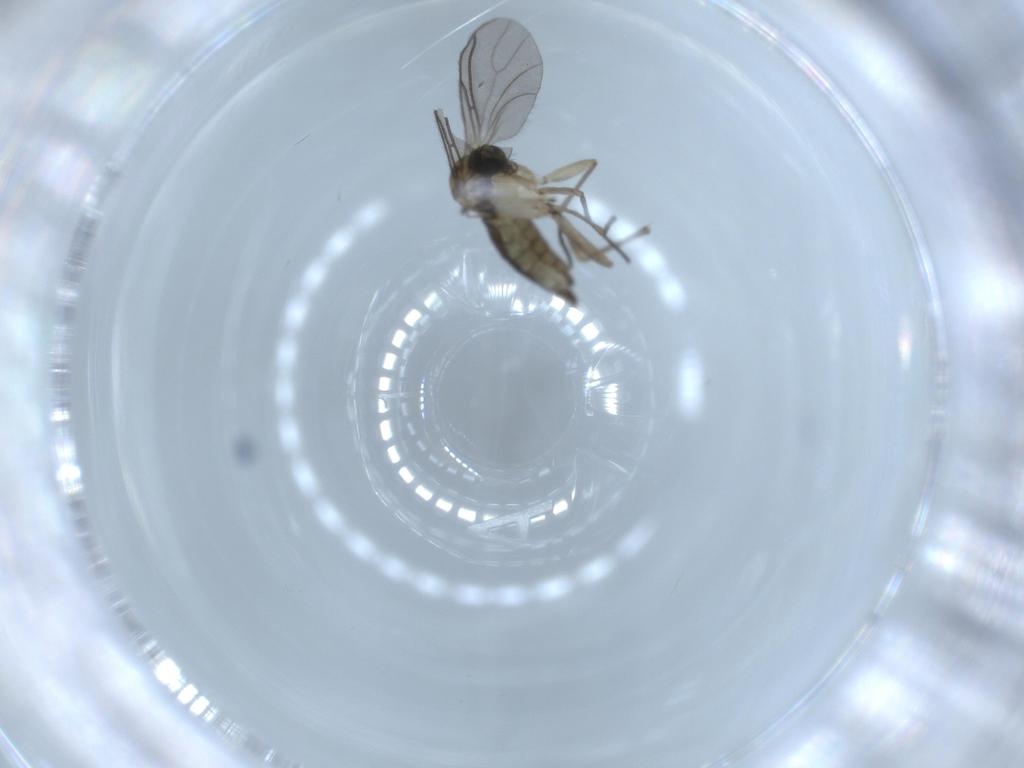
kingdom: Animalia
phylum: Arthropoda
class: Insecta
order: Diptera
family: Sciaridae
